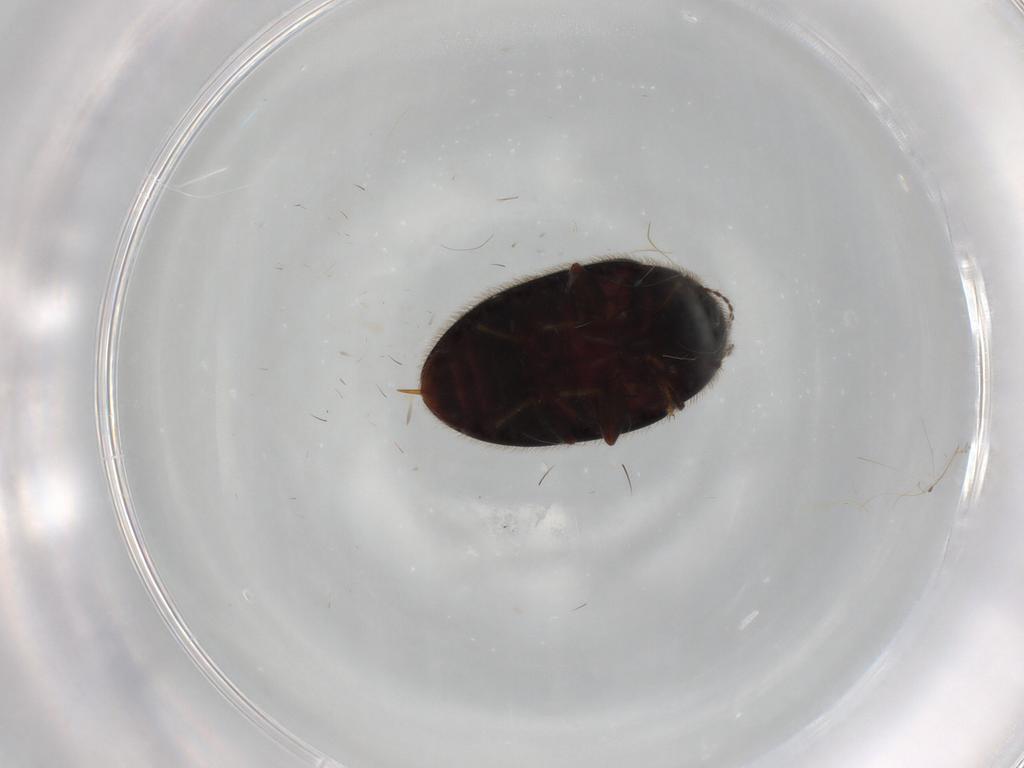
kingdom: Animalia
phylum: Arthropoda
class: Insecta
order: Coleoptera
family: Limnichidae
